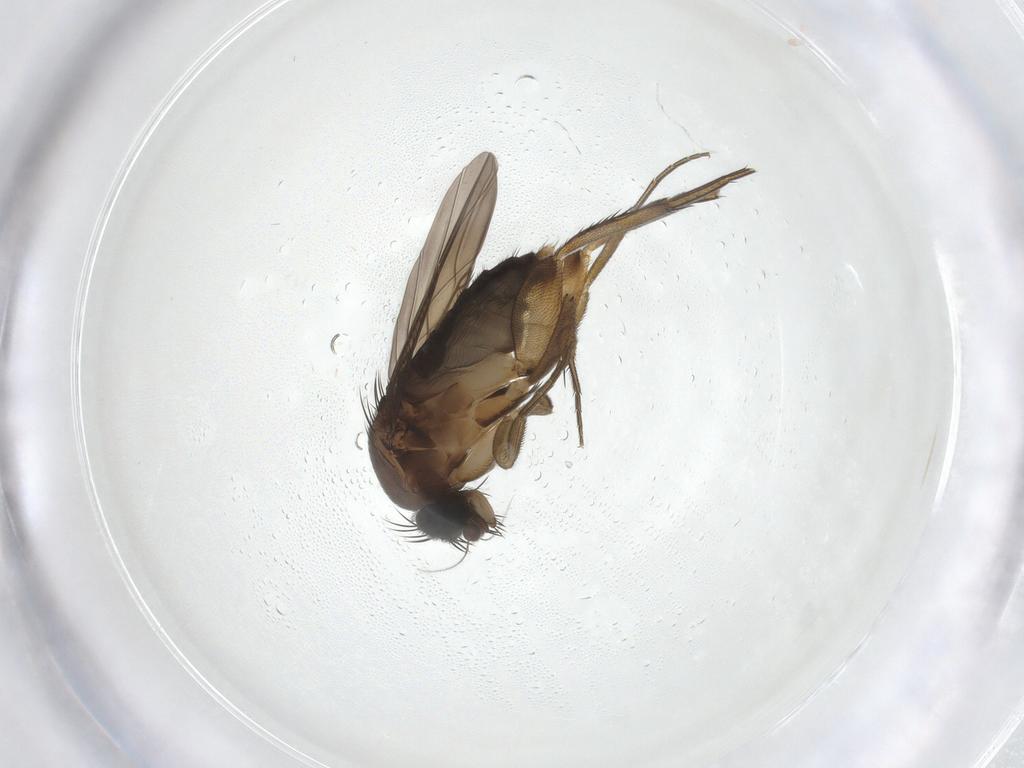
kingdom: Animalia
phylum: Arthropoda
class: Insecta
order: Diptera
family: Phoridae
